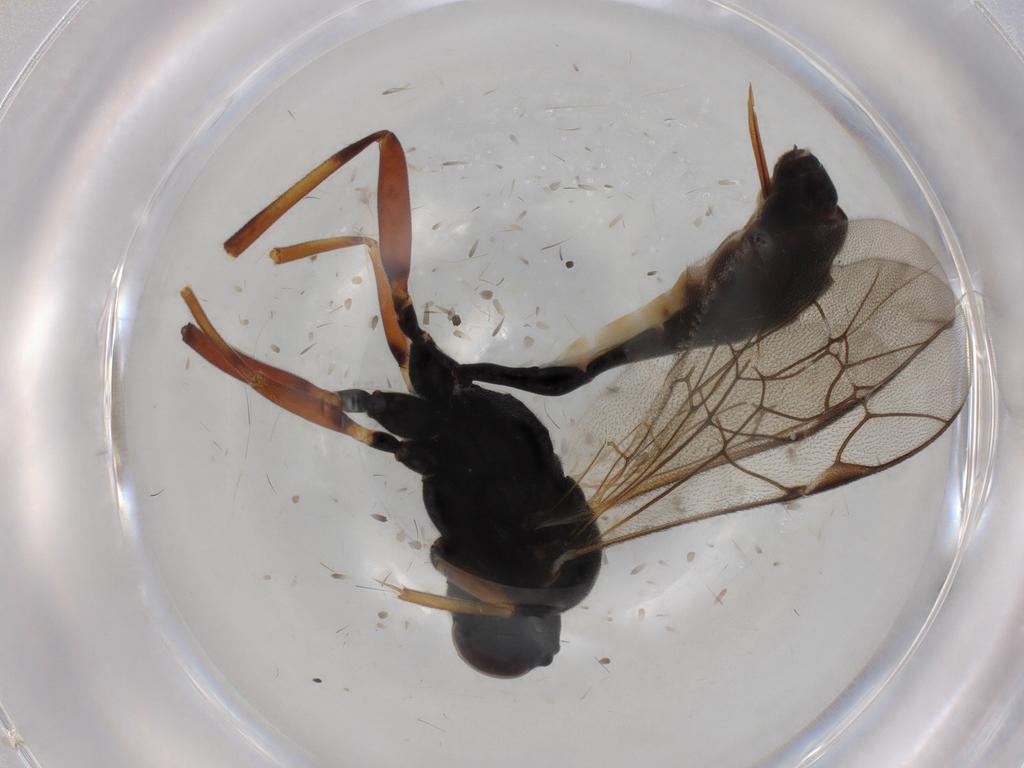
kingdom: Animalia
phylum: Arthropoda
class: Insecta
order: Hymenoptera
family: Ichneumonidae
